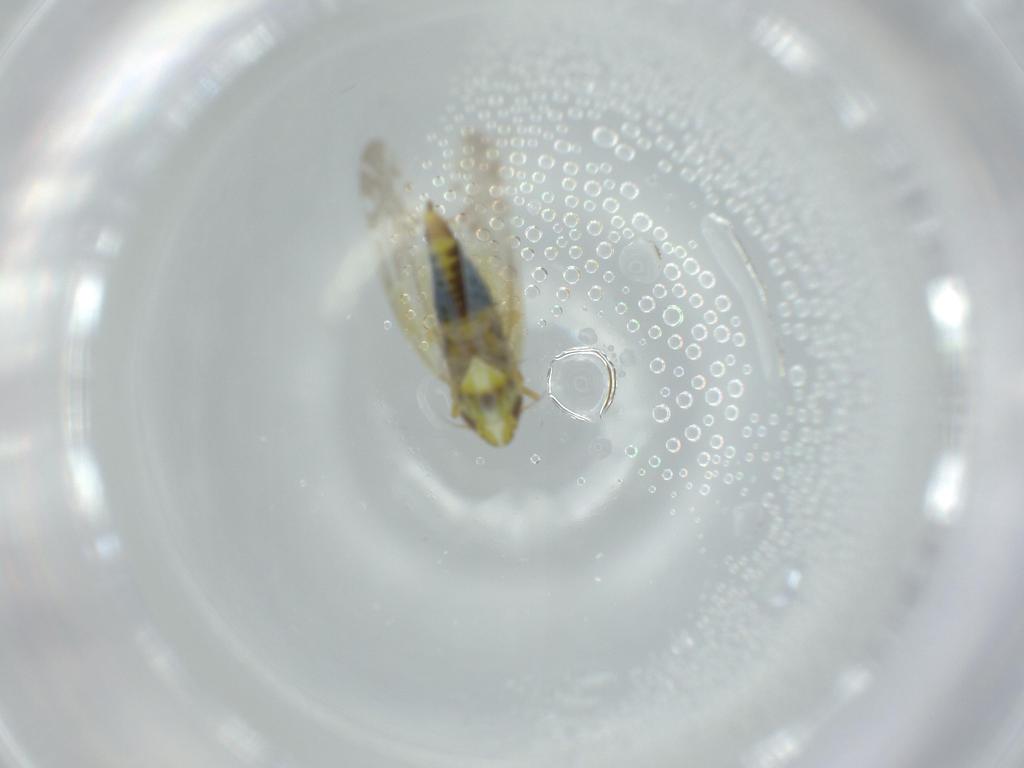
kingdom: Animalia
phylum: Arthropoda
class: Insecta
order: Hemiptera
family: Cicadellidae
